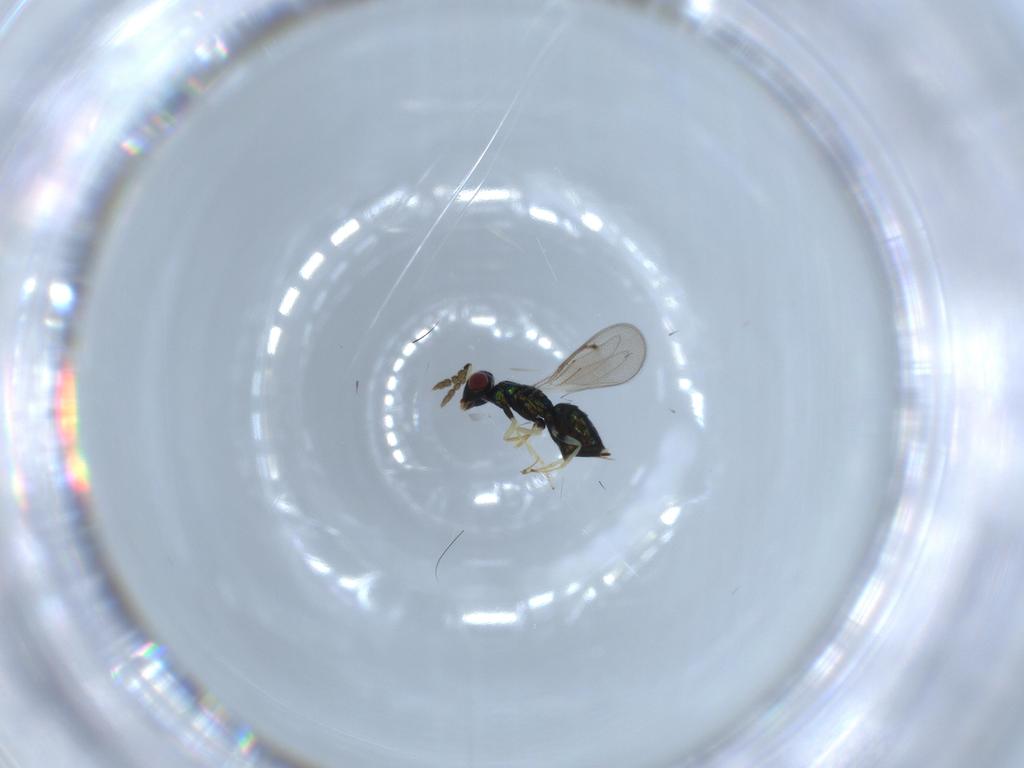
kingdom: Animalia
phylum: Arthropoda
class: Insecta
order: Hymenoptera
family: Eulophidae
